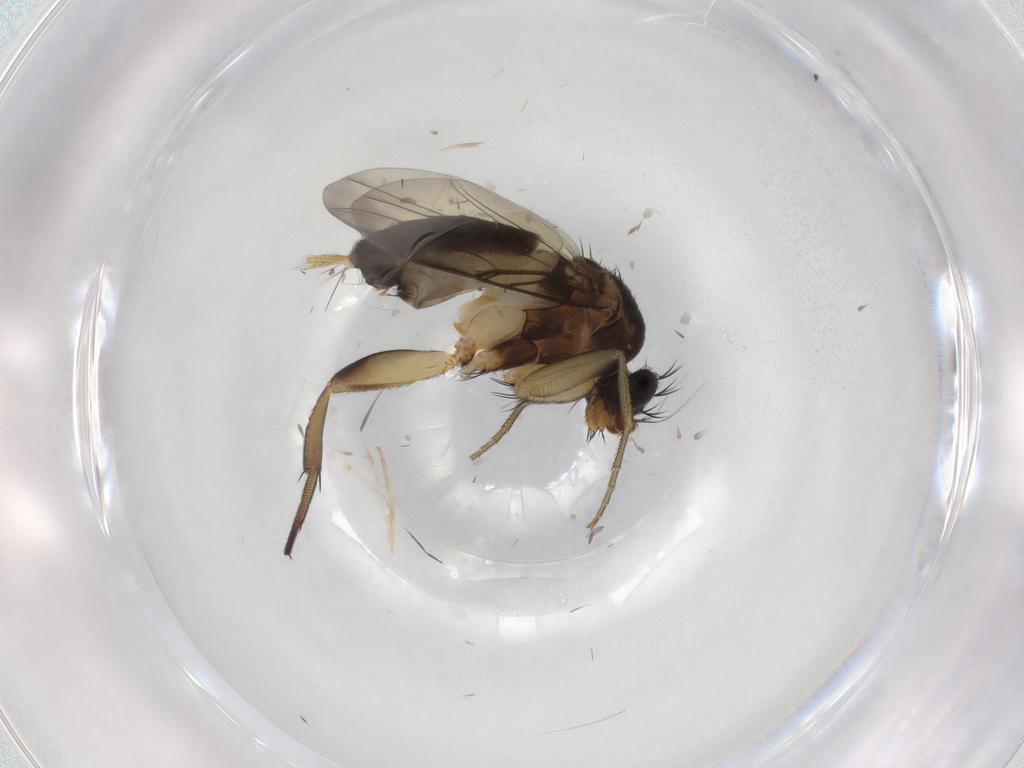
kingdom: Animalia
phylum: Arthropoda
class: Insecta
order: Diptera
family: Phoridae
